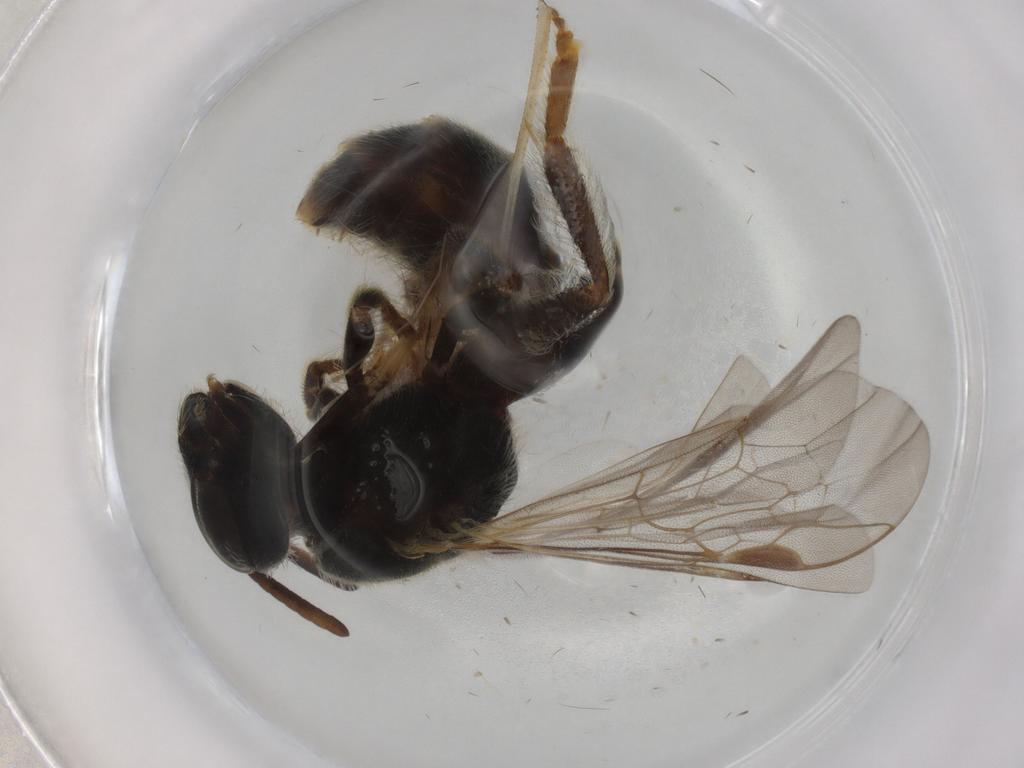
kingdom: Animalia
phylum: Arthropoda
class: Insecta
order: Hymenoptera
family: Halictidae
